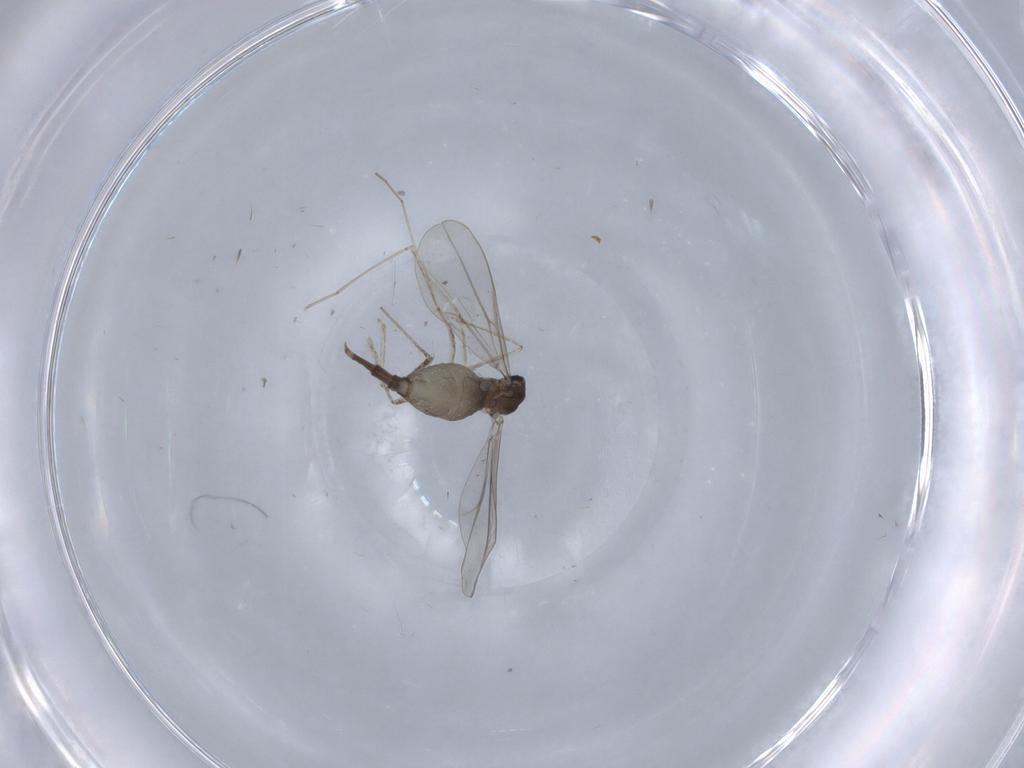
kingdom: Animalia
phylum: Arthropoda
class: Insecta
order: Diptera
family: Cecidomyiidae
